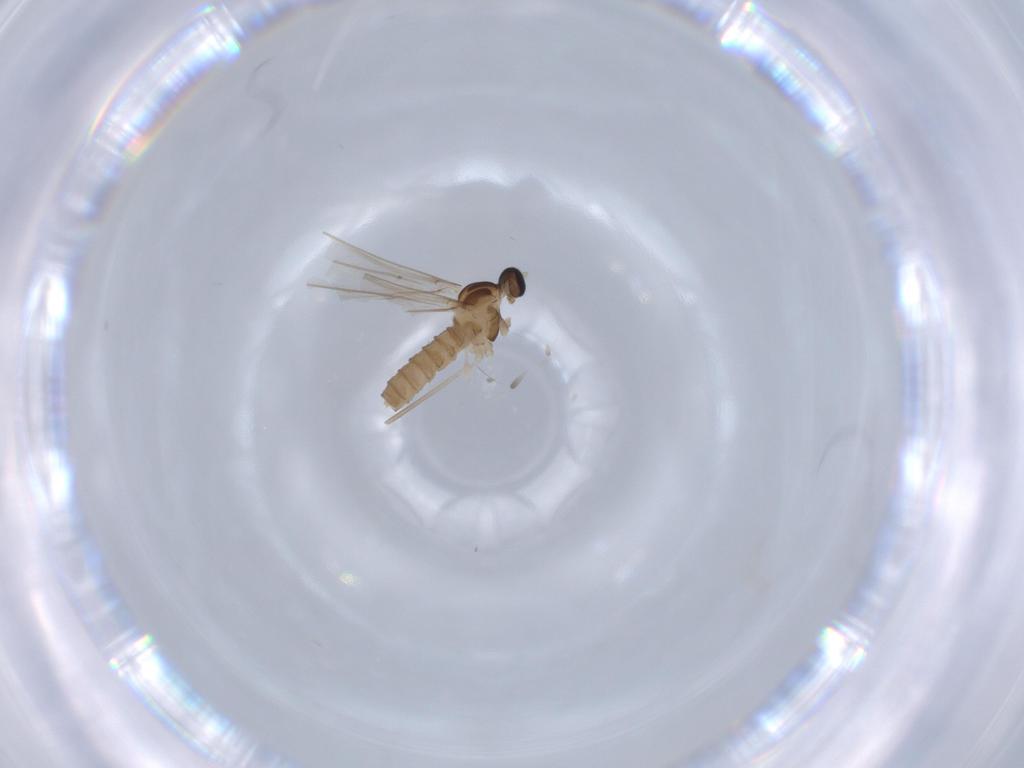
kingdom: Animalia
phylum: Arthropoda
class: Insecta
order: Diptera
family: Cecidomyiidae
